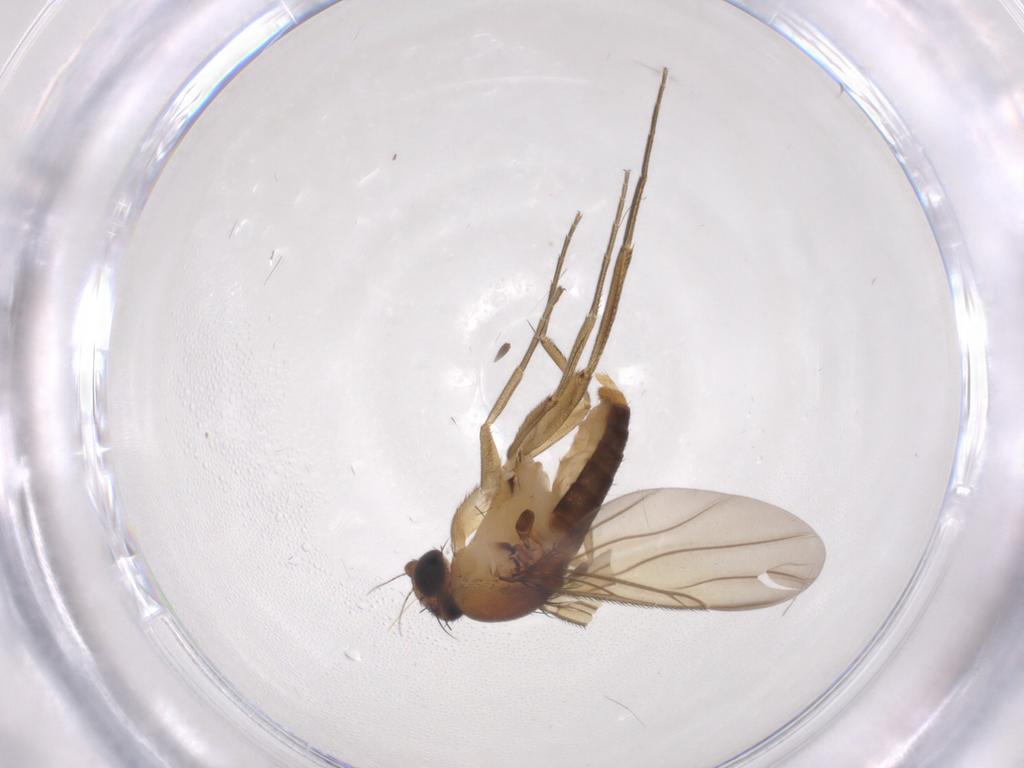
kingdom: Animalia
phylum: Arthropoda
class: Insecta
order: Diptera
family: Phoridae
